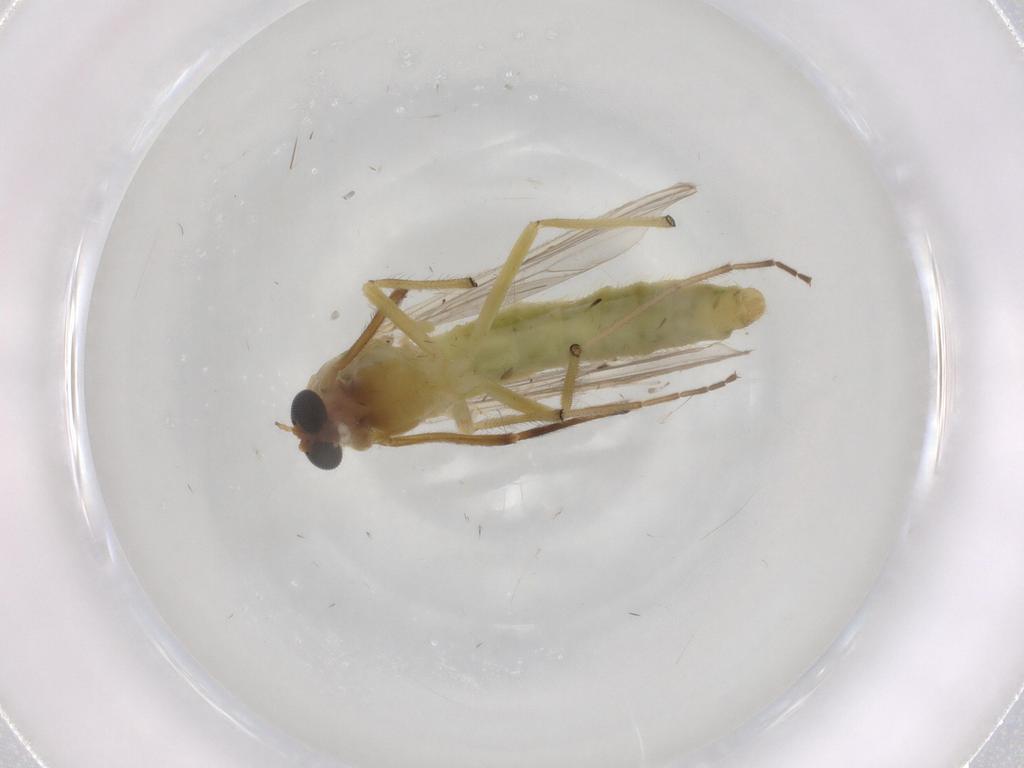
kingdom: Animalia
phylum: Arthropoda
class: Insecta
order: Diptera
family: Chironomidae
